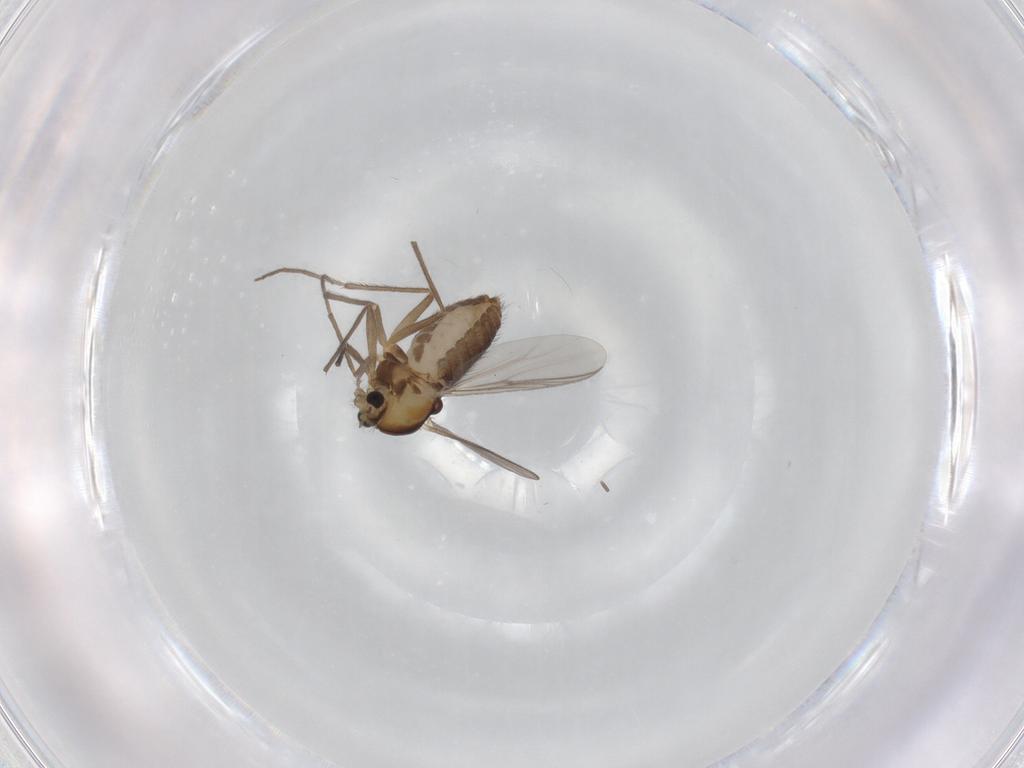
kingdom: Animalia
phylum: Arthropoda
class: Insecta
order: Diptera
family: Chironomidae
